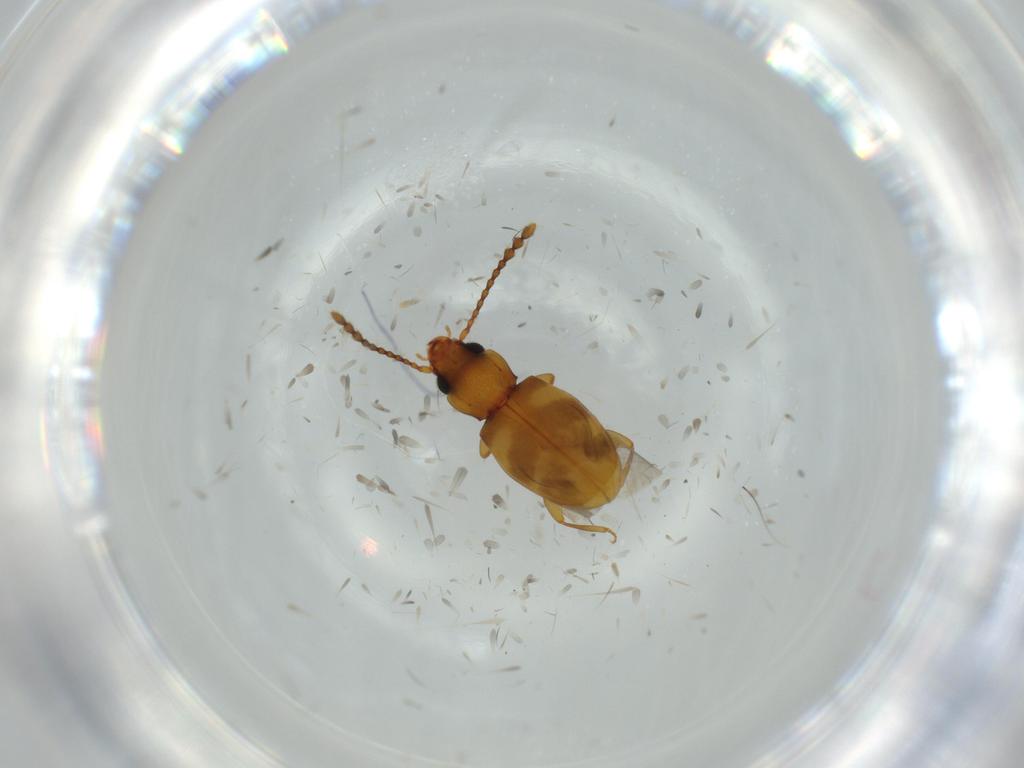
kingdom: Animalia
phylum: Arthropoda
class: Insecta
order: Coleoptera
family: Laemophloeidae
